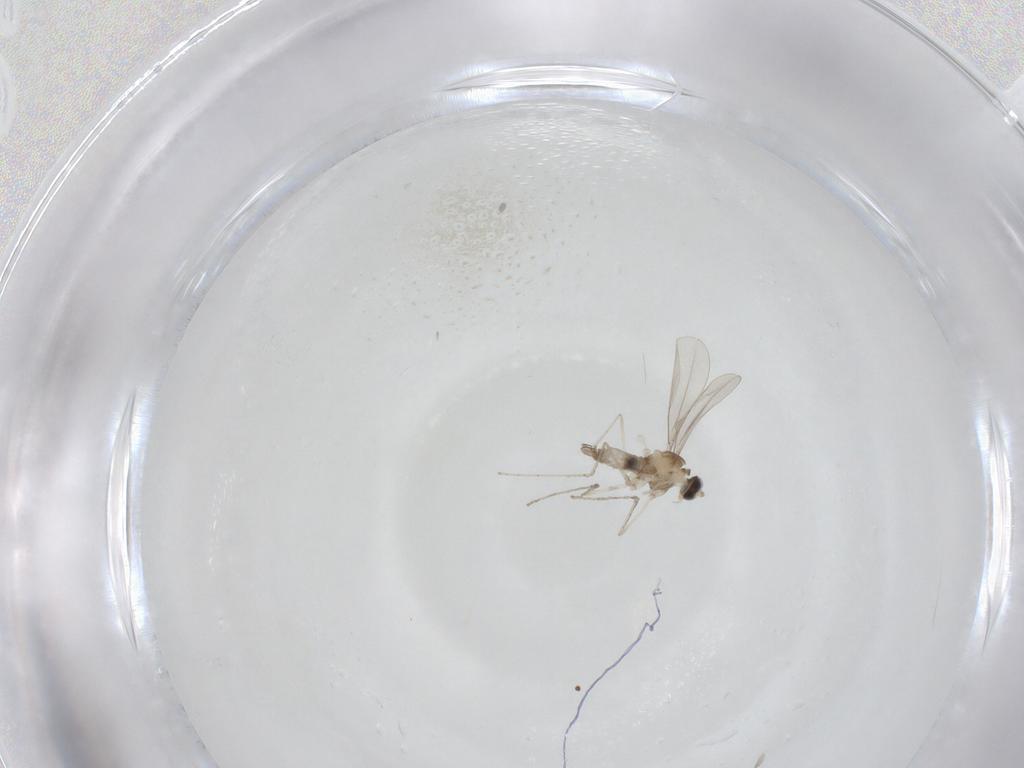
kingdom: Animalia
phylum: Arthropoda
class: Insecta
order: Diptera
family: Cecidomyiidae
